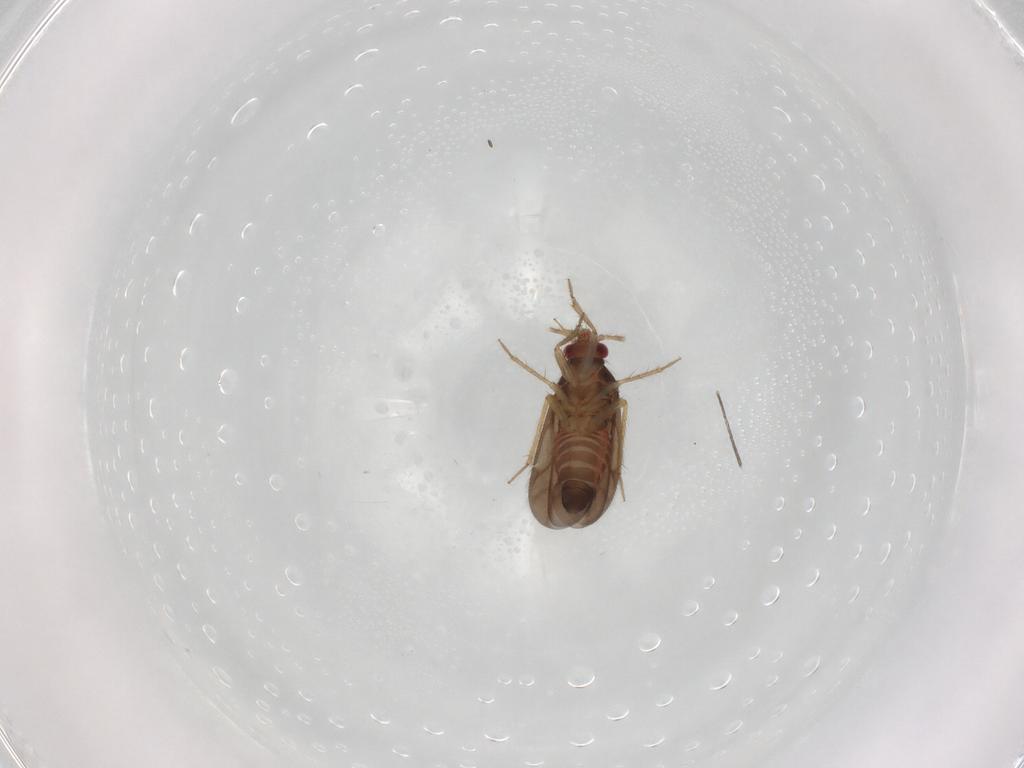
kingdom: Animalia
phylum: Arthropoda
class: Insecta
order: Hemiptera
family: Ceratocombidae
